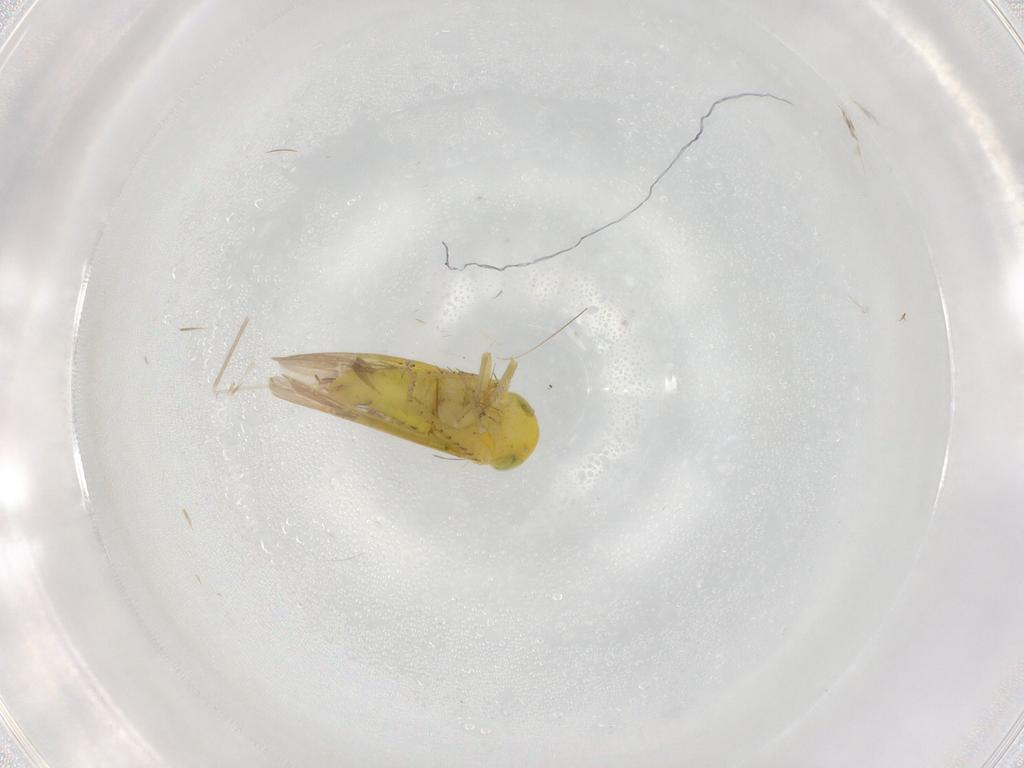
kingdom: Animalia
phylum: Arthropoda
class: Insecta
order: Hemiptera
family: Cicadellidae
